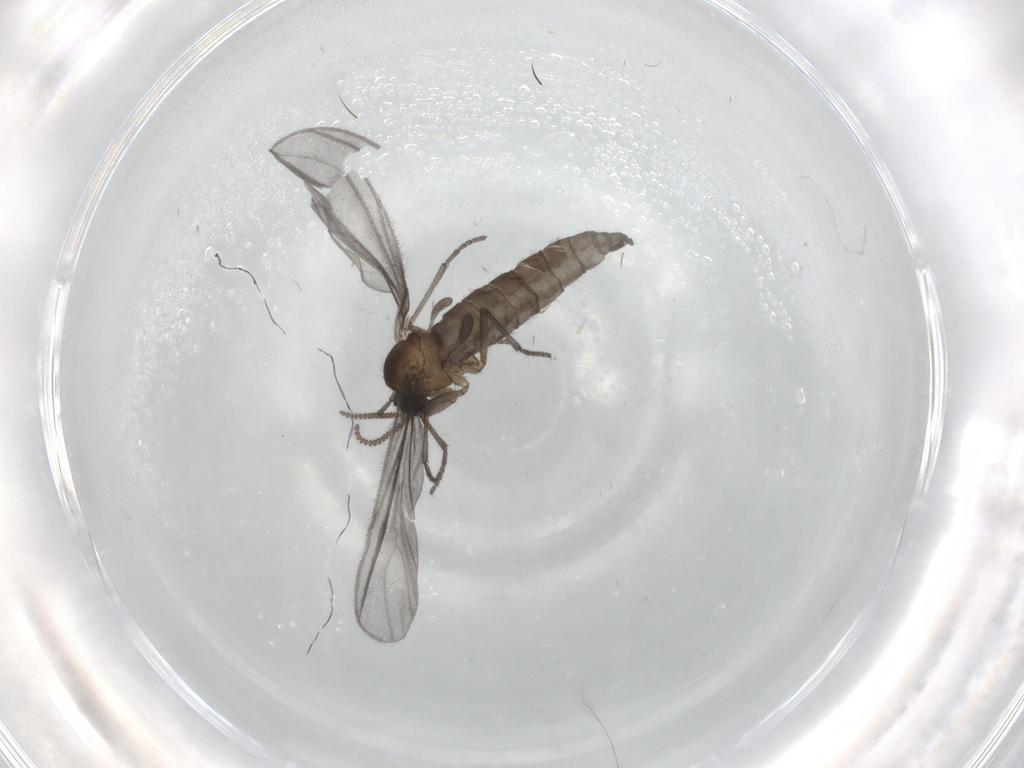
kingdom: Animalia
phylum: Arthropoda
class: Insecta
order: Diptera
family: Sciaridae
